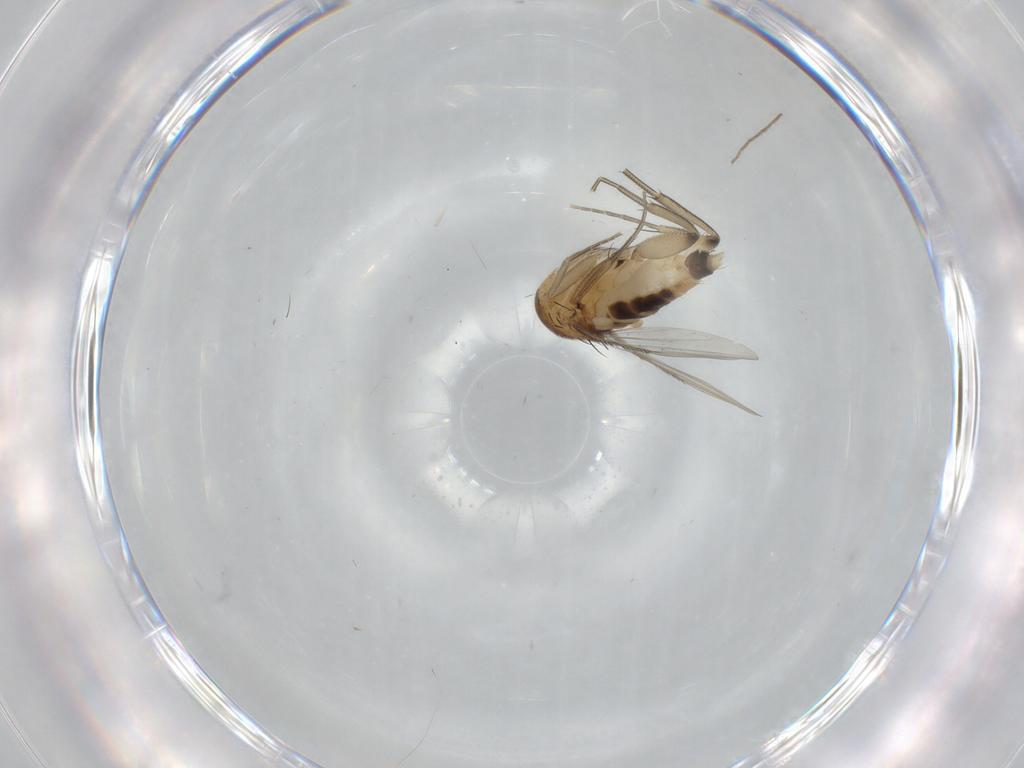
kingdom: Animalia
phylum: Arthropoda
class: Insecta
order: Diptera
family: Phoridae
